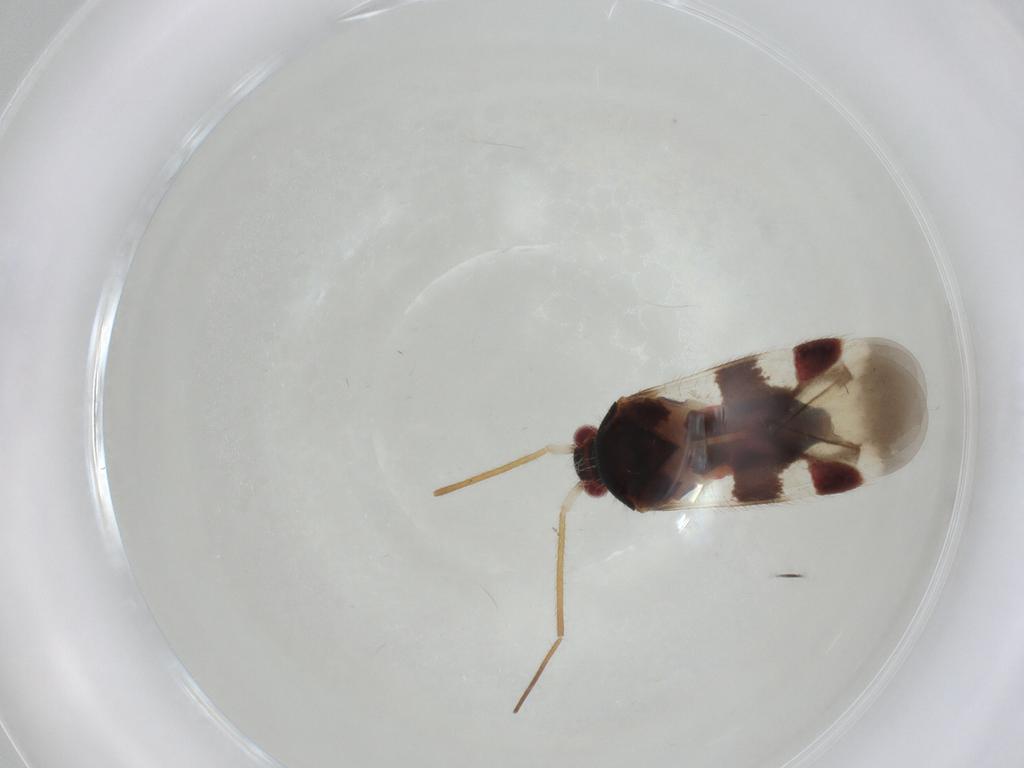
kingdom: Animalia
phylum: Arthropoda
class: Insecta
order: Hemiptera
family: Miridae
